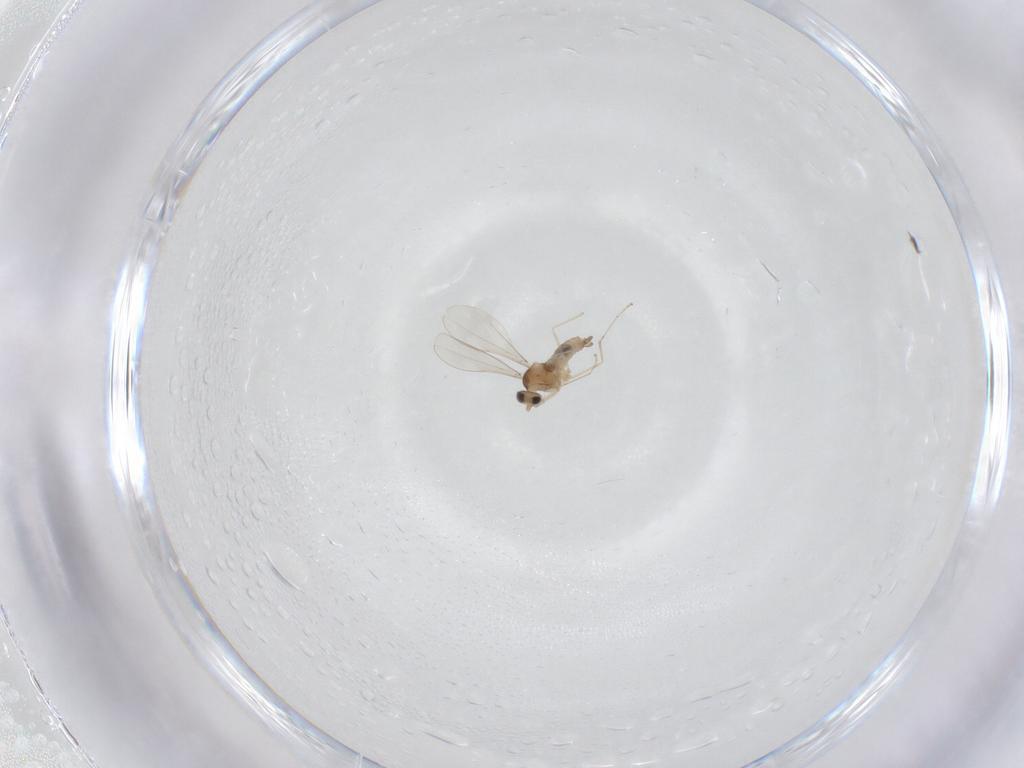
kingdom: Animalia
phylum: Arthropoda
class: Insecta
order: Diptera
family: Cecidomyiidae
